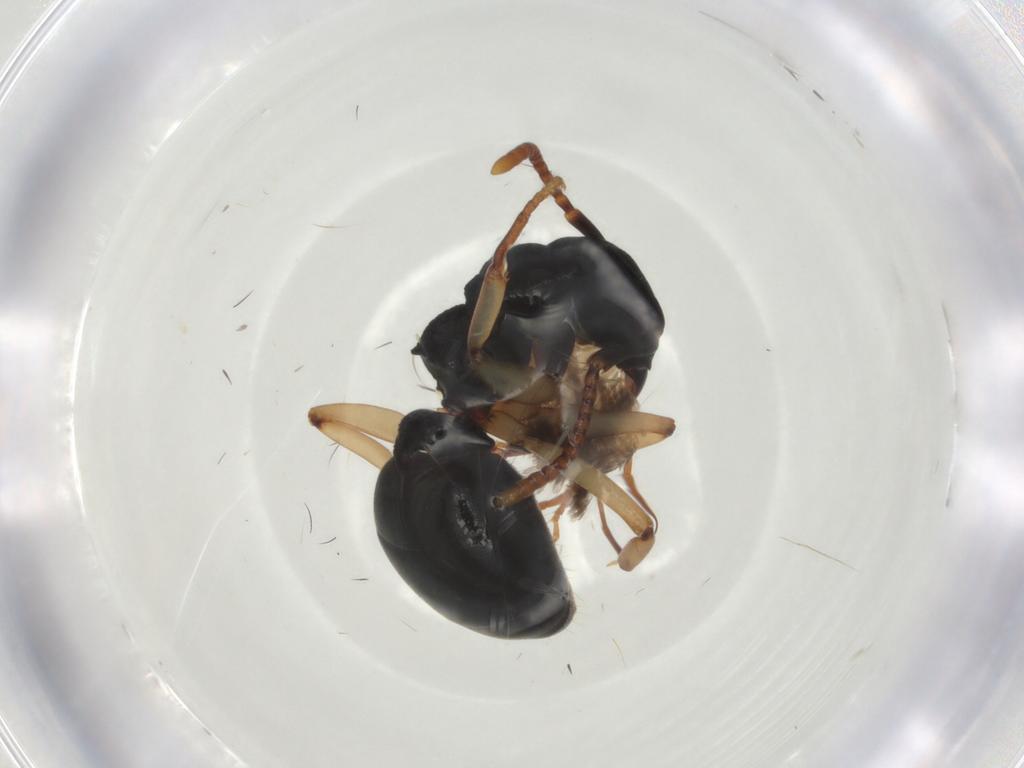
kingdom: Animalia
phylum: Arthropoda
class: Insecta
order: Hymenoptera
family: Formicidae
